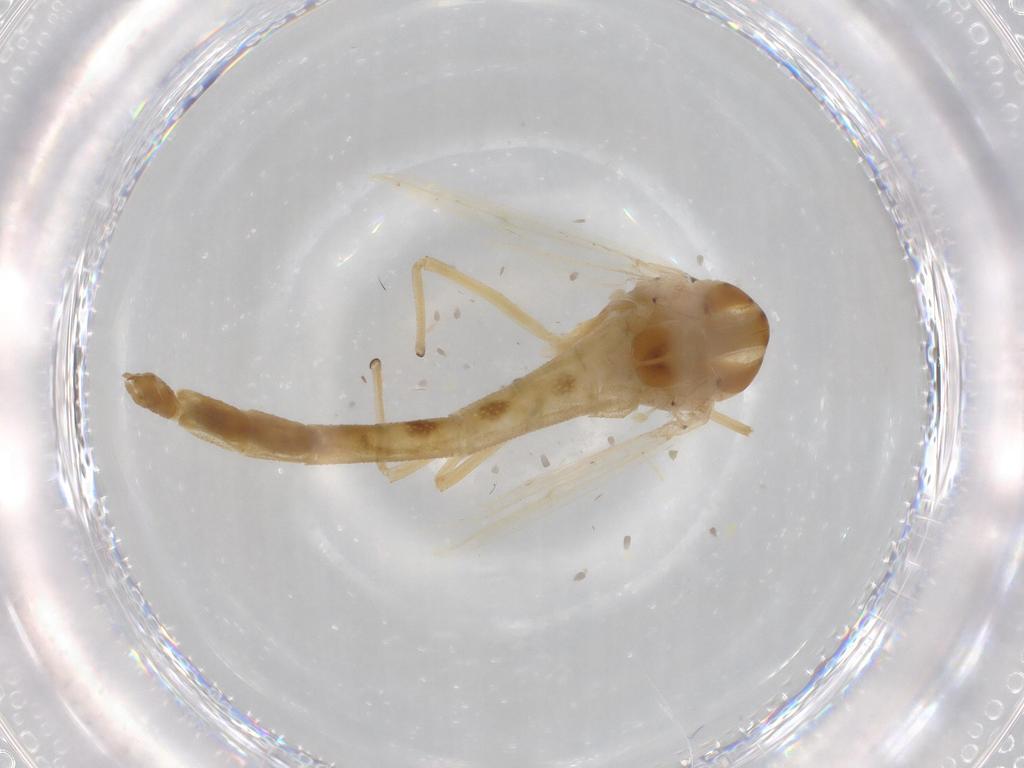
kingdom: Animalia
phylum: Arthropoda
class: Insecta
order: Diptera
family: Chironomidae
